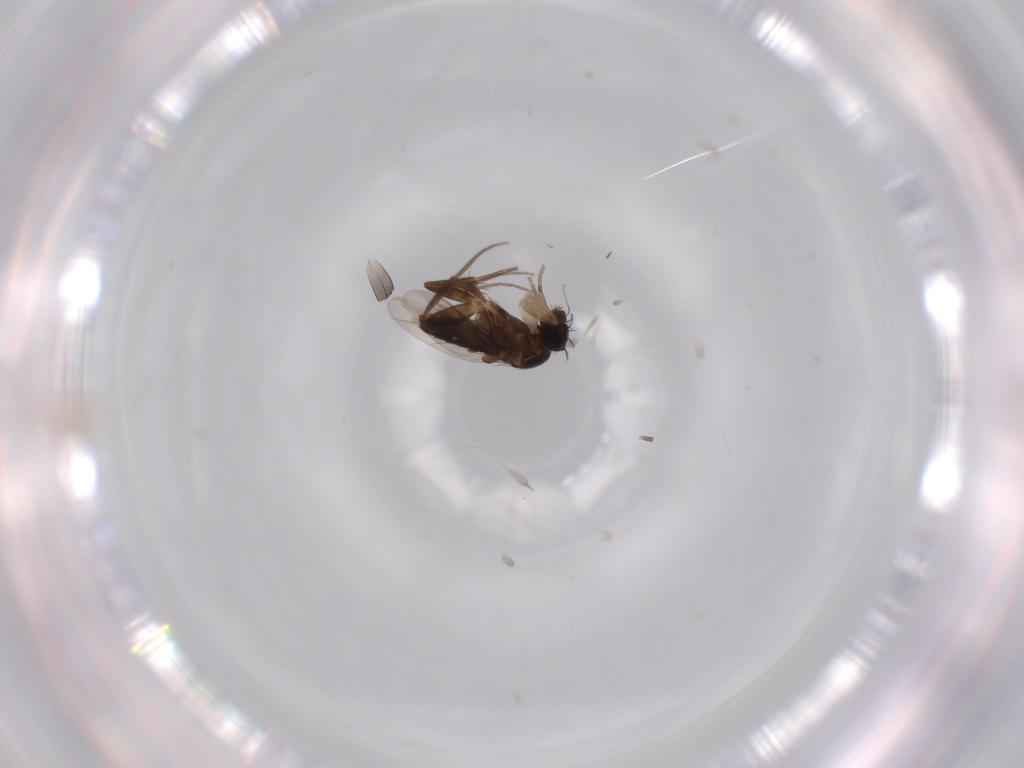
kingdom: Animalia
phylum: Arthropoda
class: Insecta
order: Diptera
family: Phoridae
